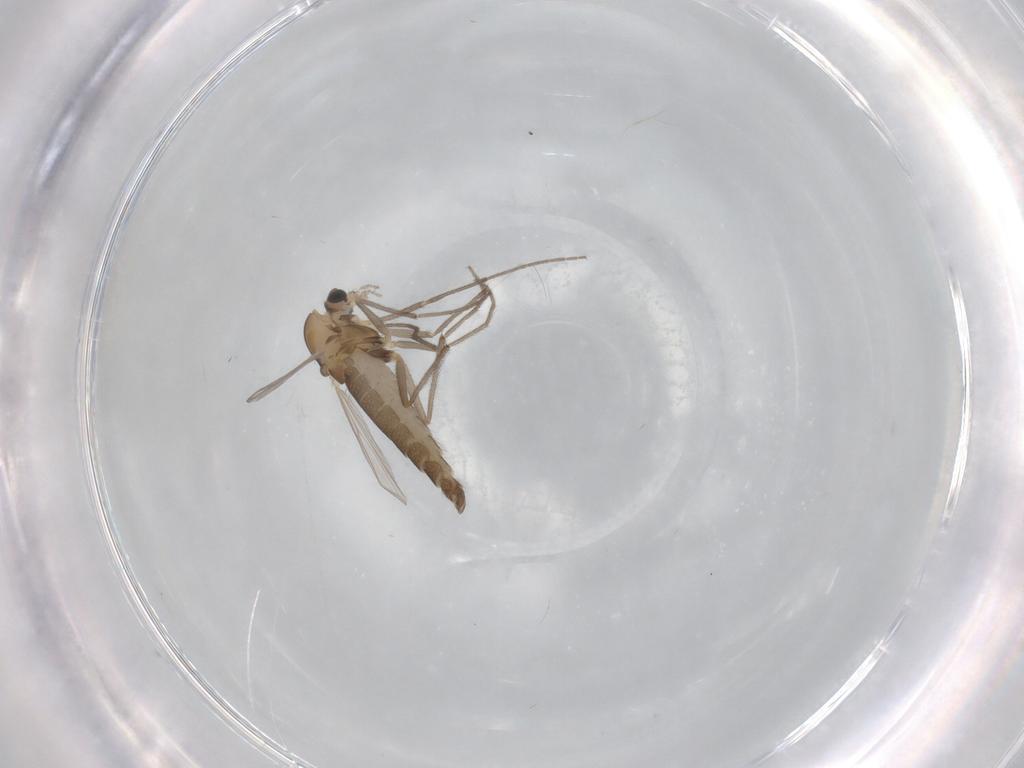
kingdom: Animalia
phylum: Arthropoda
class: Insecta
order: Diptera
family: Chironomidae
